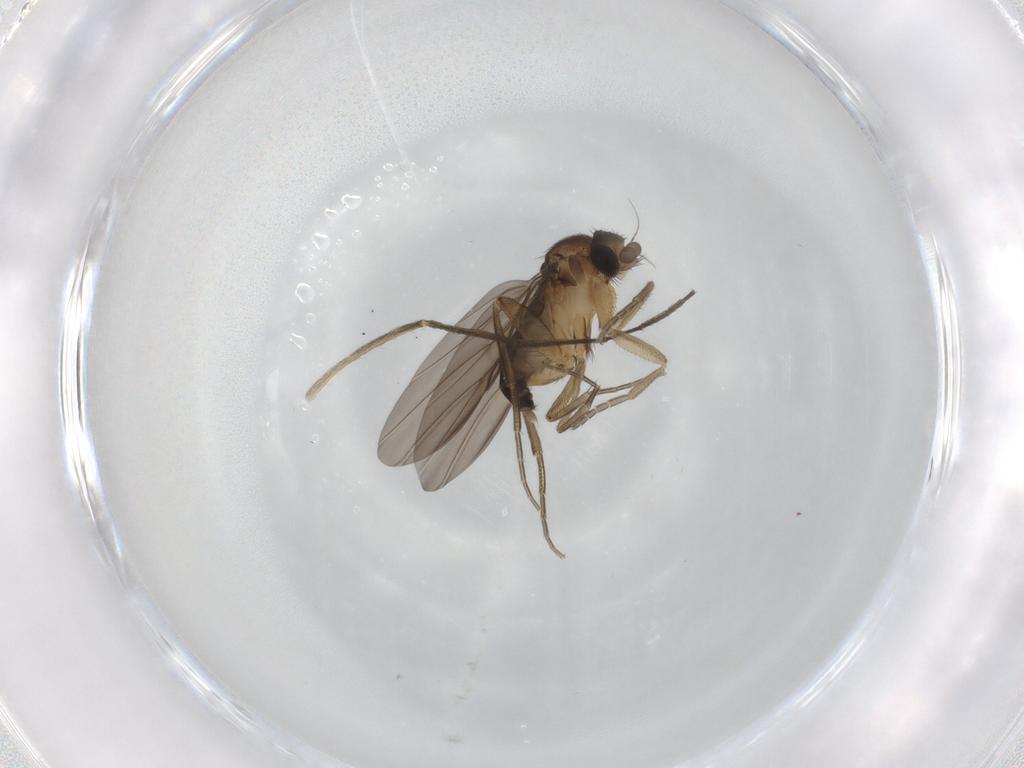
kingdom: Animalia
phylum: Arthropoda
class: Insecta
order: Diptera
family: Cecidomyiidae
